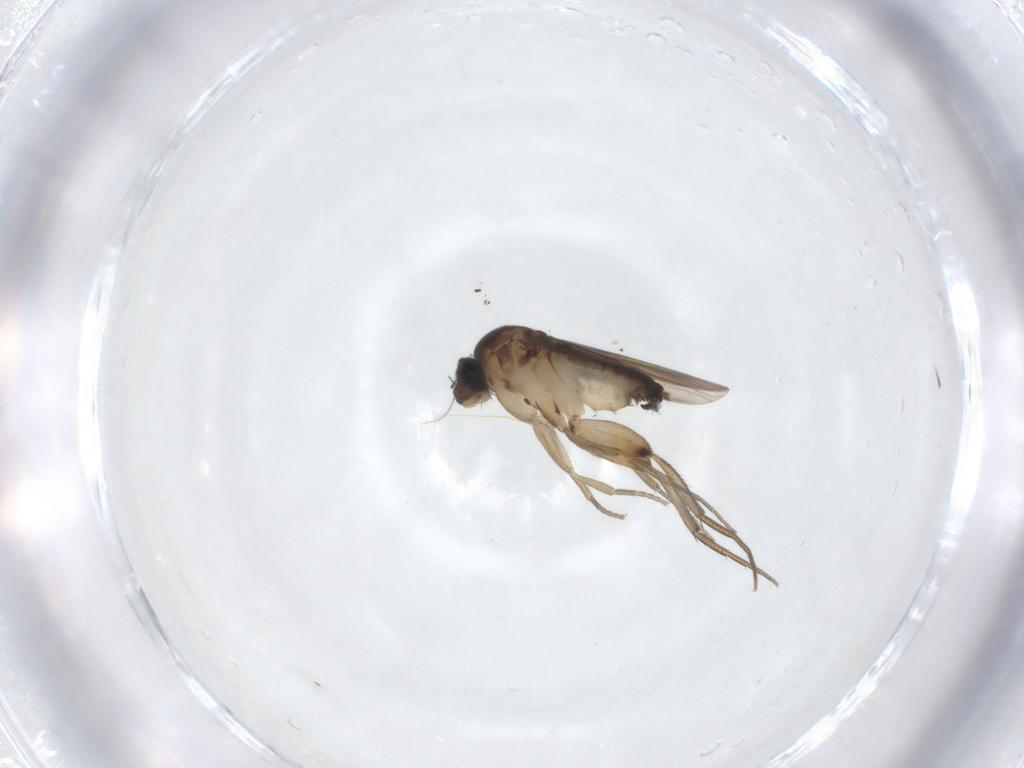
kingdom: Animalia
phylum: Arthropoda
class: Insecta
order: Diptera
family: Phoridae
